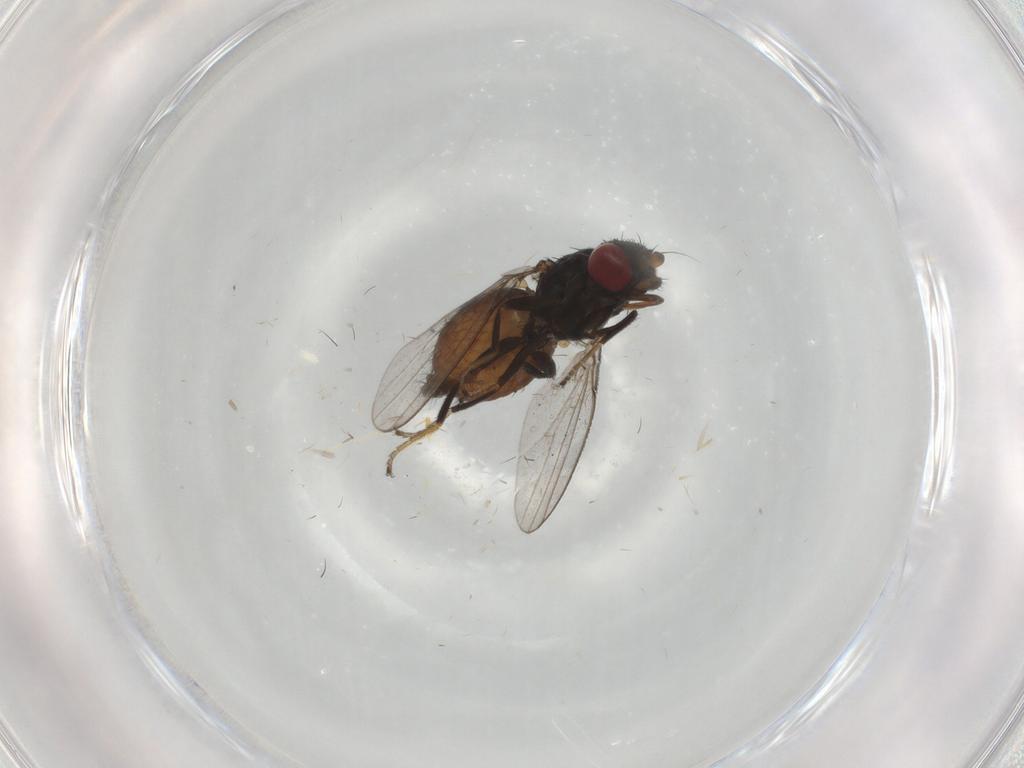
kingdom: Animalia
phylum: Arthropoda
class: Insecta
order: Diptera
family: Milichiidae
